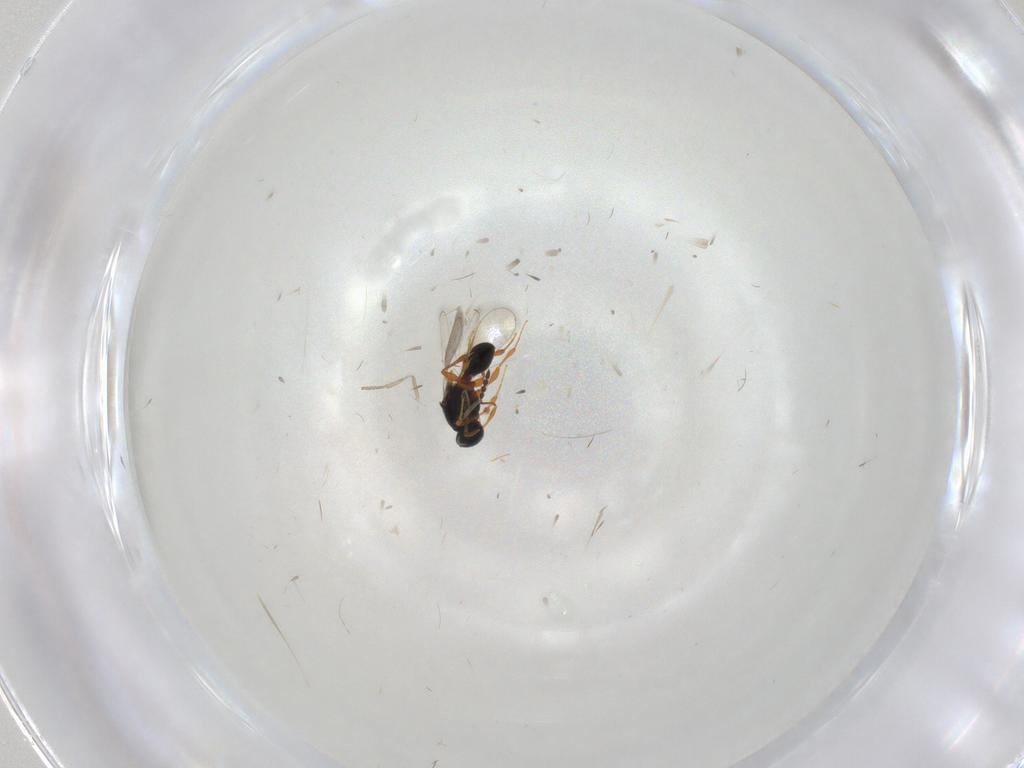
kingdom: Animalia
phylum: Arthropoda
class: Insecta
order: Hymenoptera
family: Platygastridae
